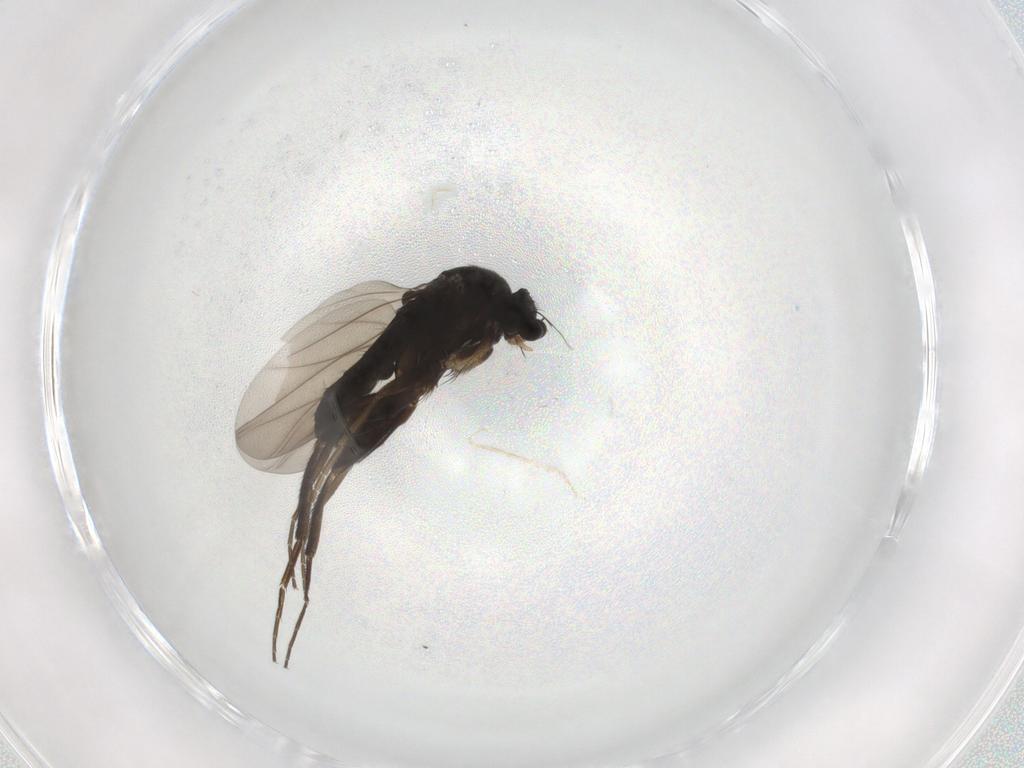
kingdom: Animalia
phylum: Arthropoda
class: Insecta
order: Diptera
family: Phoridae
